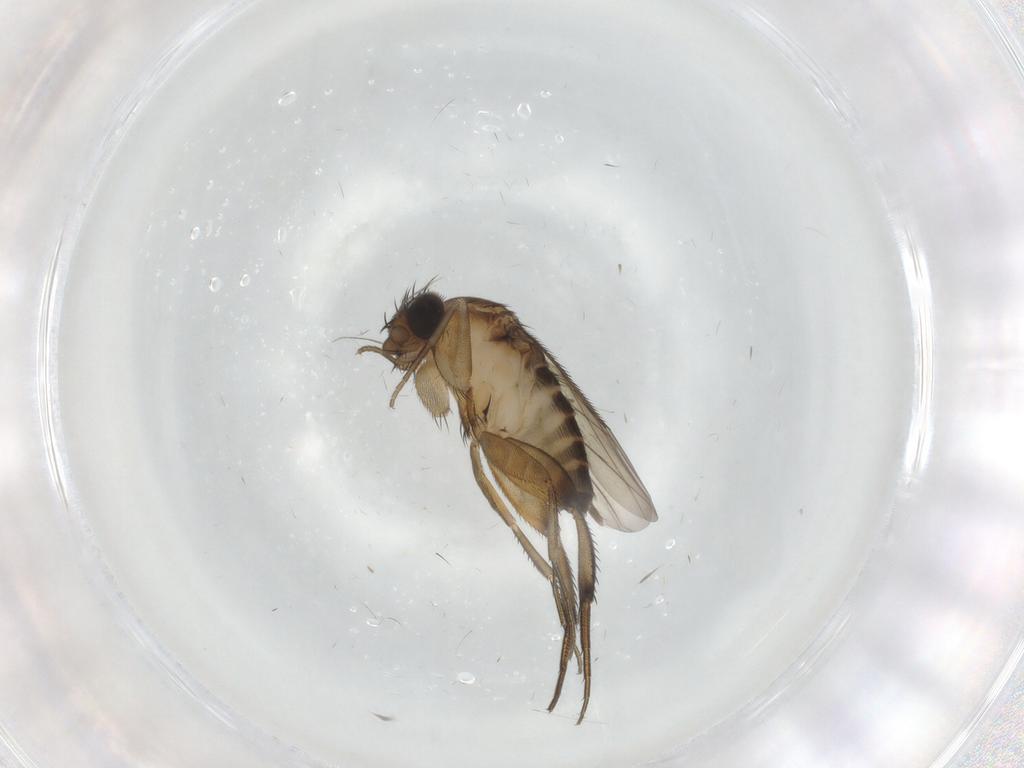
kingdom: Animalia
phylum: Arthropoda
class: Insecta
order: Diptera
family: Phoridae
